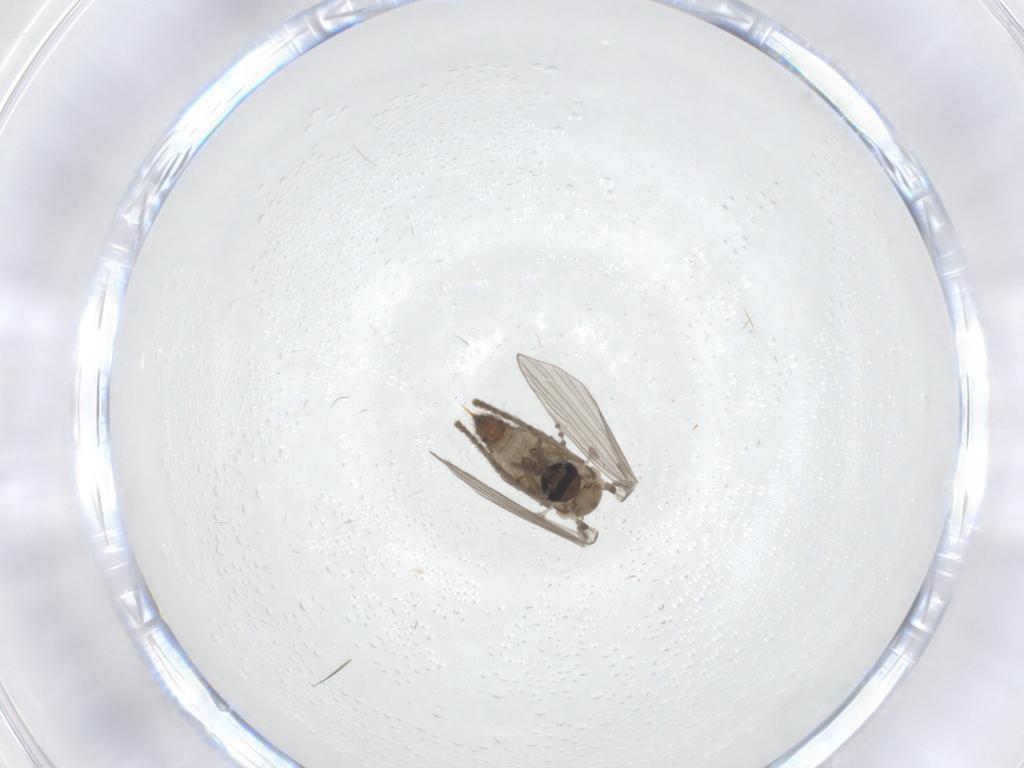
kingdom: Animalia
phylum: Arthropoda
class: Insecta
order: Diptera
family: Psychodidae
